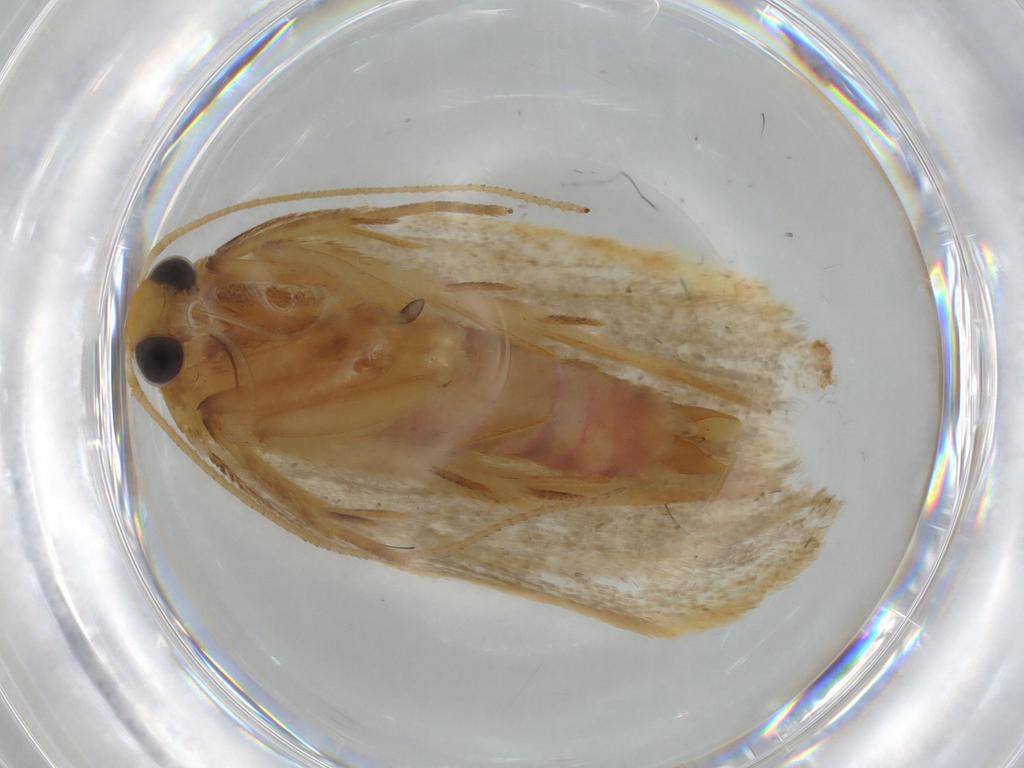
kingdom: Animalia
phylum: Arthropoda
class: Insecta
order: Lepidoptera
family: Autostichidae
